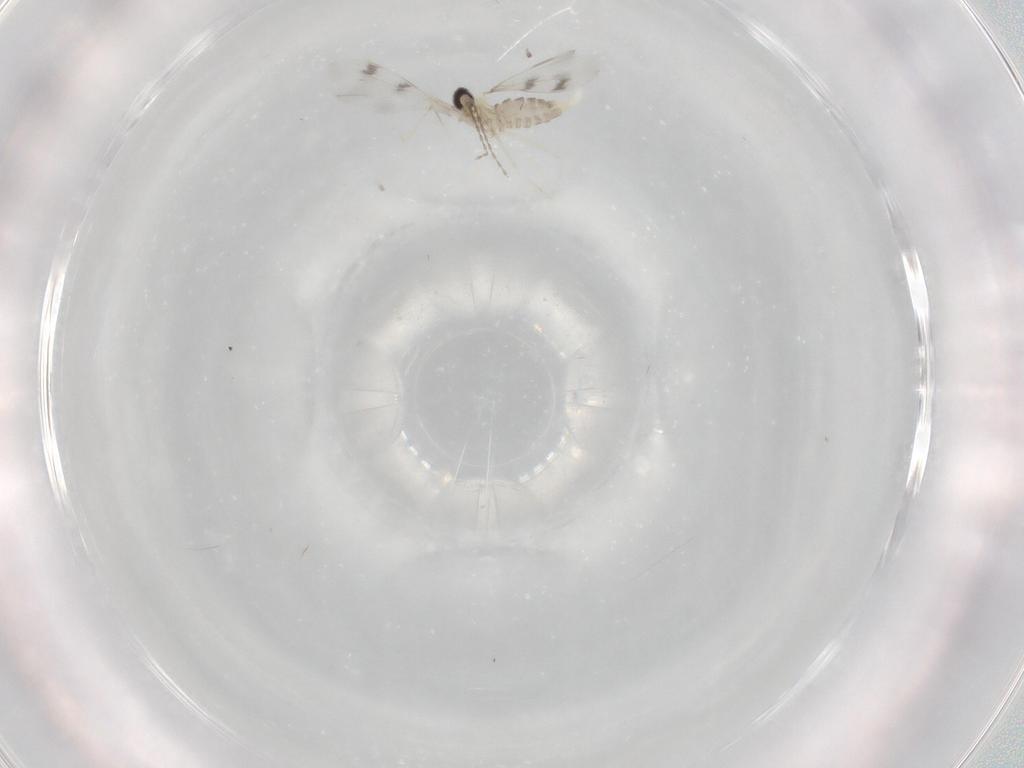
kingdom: Animalia
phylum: Arthropoda
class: Insecta
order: Diptera
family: Cecidomyiidae
